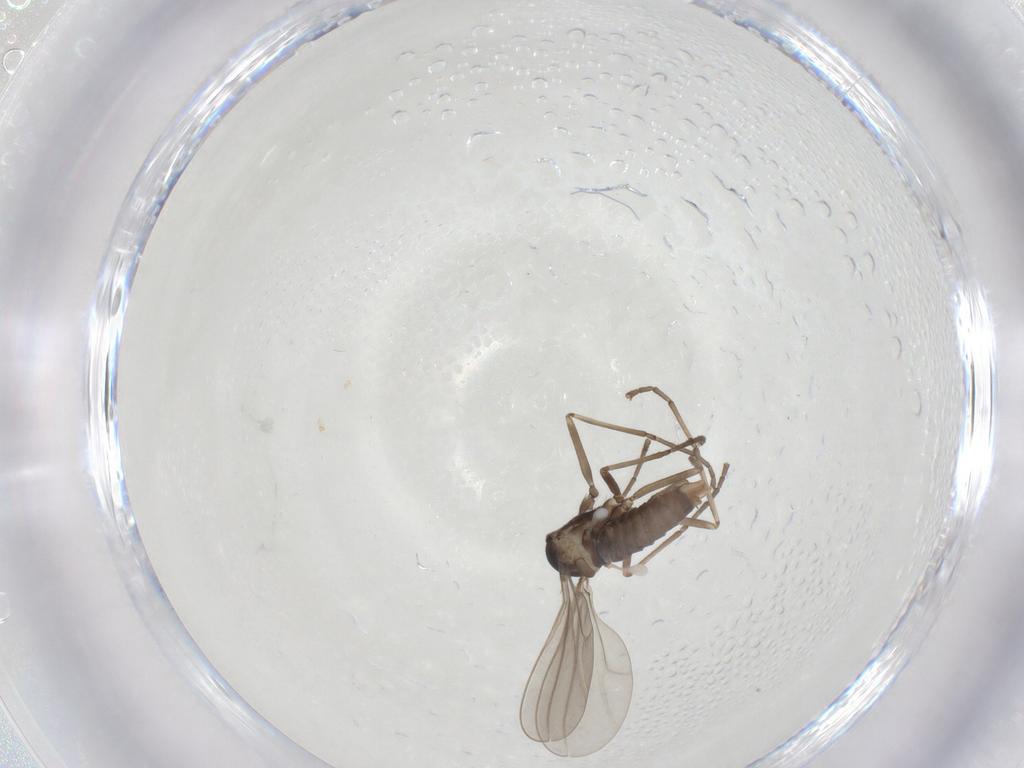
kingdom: Animalia
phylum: Arthropoda
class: Insecta
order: Diptera
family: Cecidomyiidae
